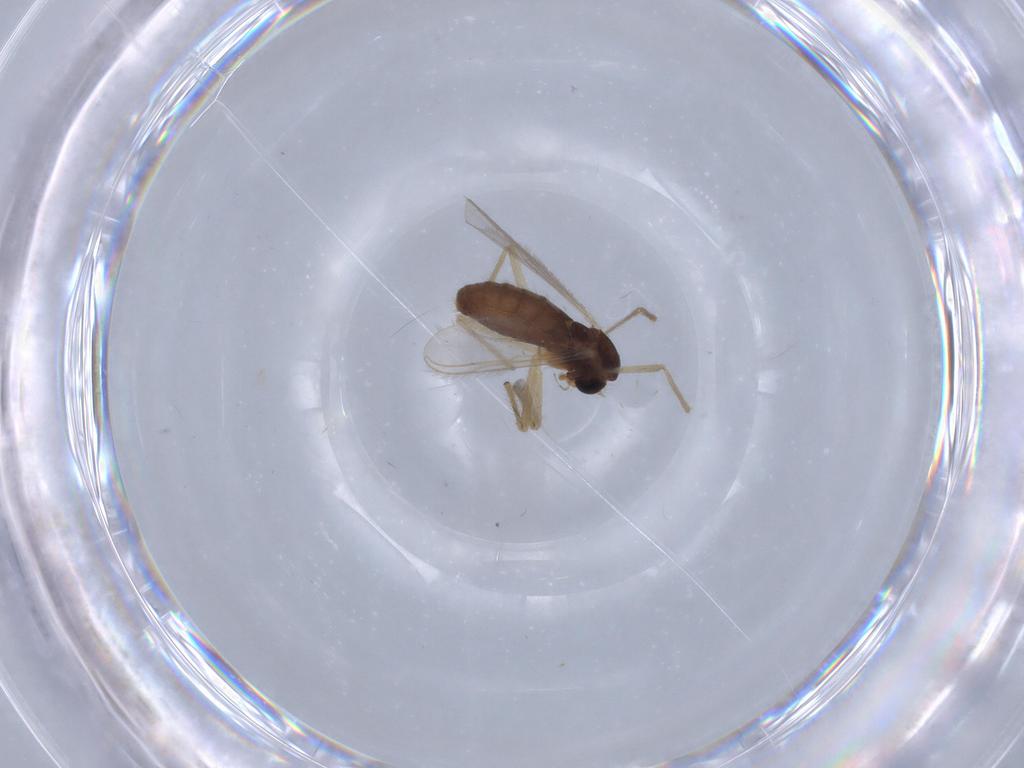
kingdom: Animalia
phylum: Arthropoda
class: Insecta
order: Diptera
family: Chironomidae
